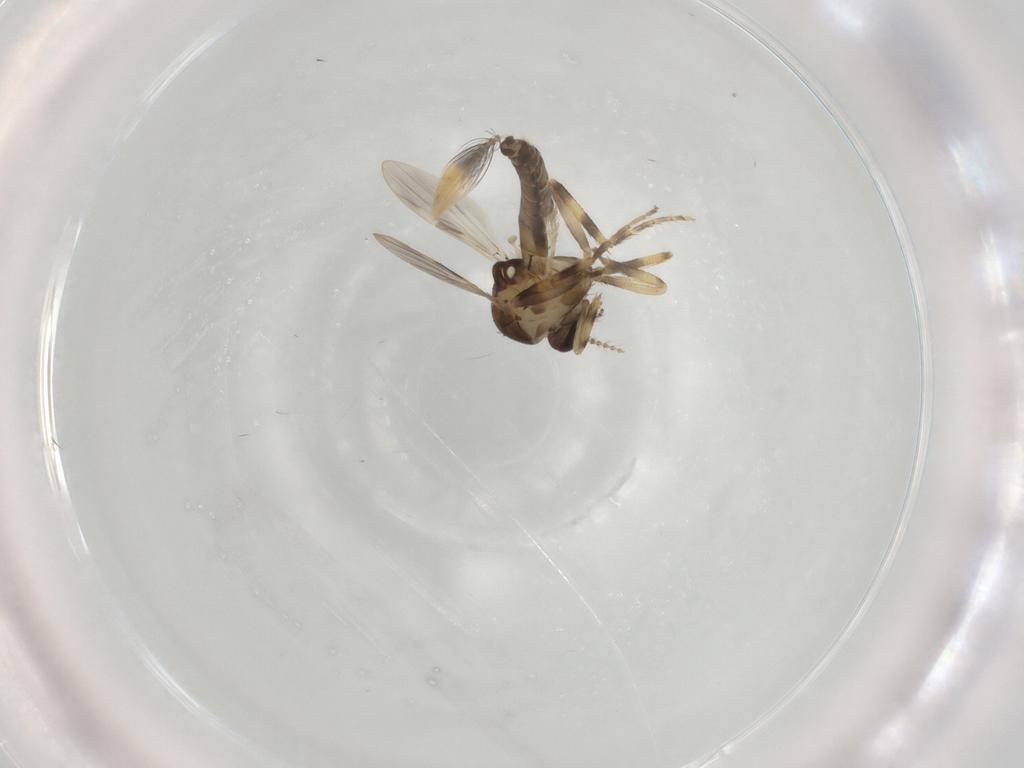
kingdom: Animalia
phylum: Arthropoda
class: Insecta
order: Diptera
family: Ceratopogonidae
